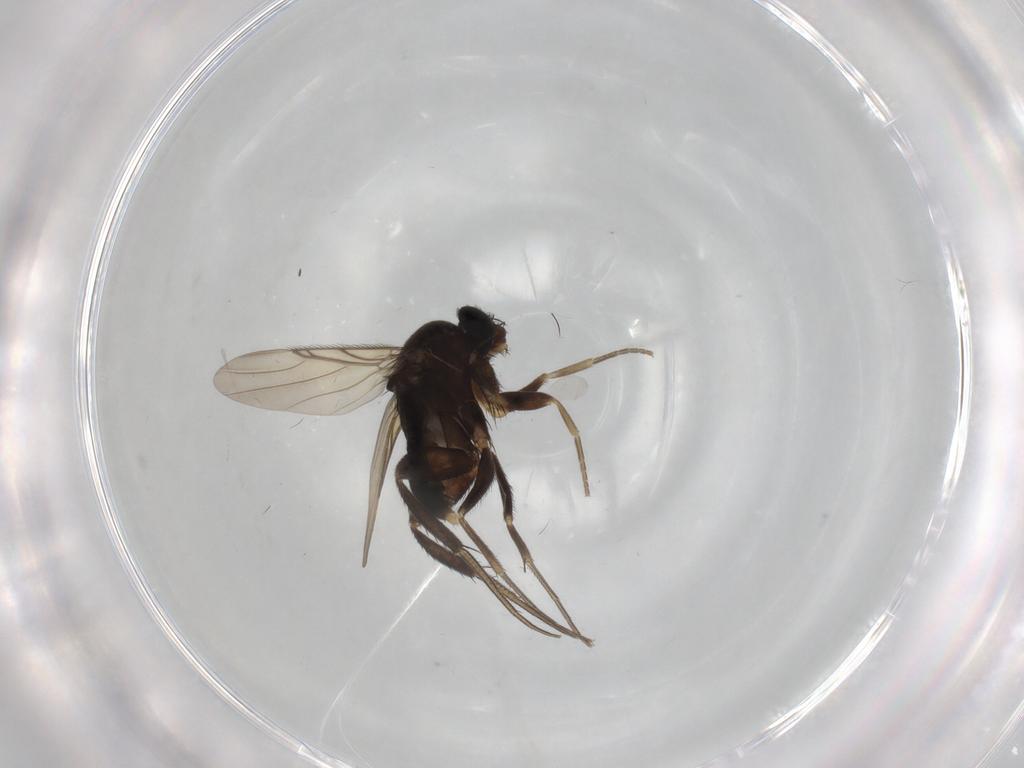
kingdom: Animalia
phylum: Arthropoda
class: Insecta
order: Diptera
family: Phoridae
